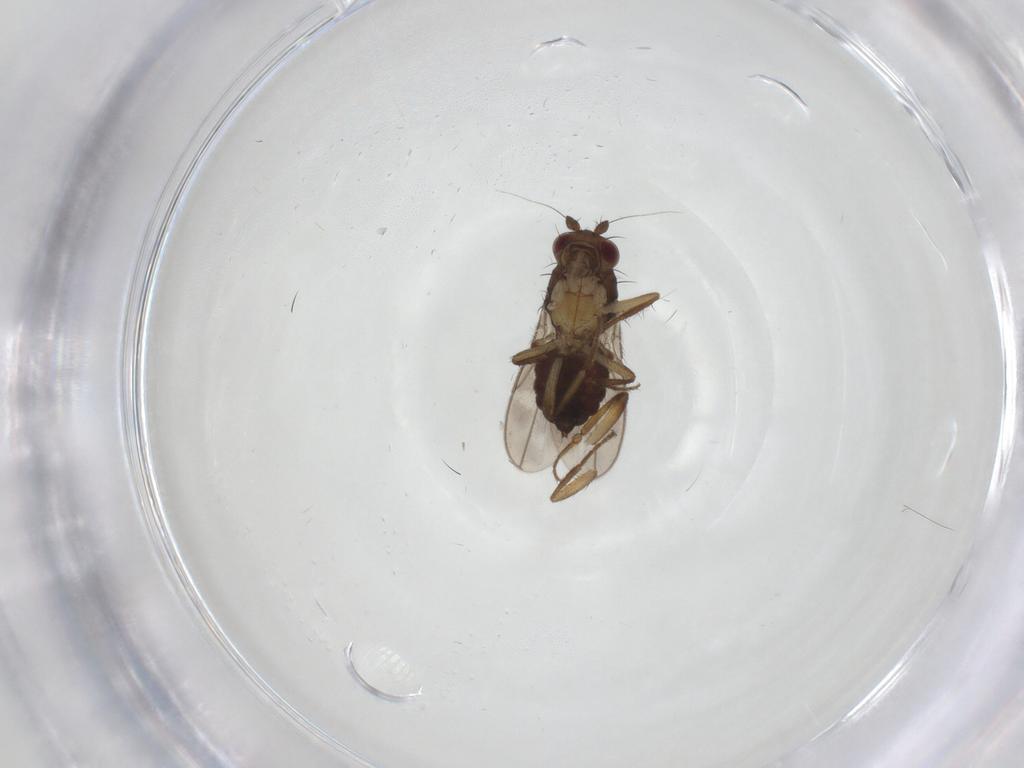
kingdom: Animalia
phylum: Arthropoda
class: Insecta
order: Diptera
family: Sphaeroceridae
